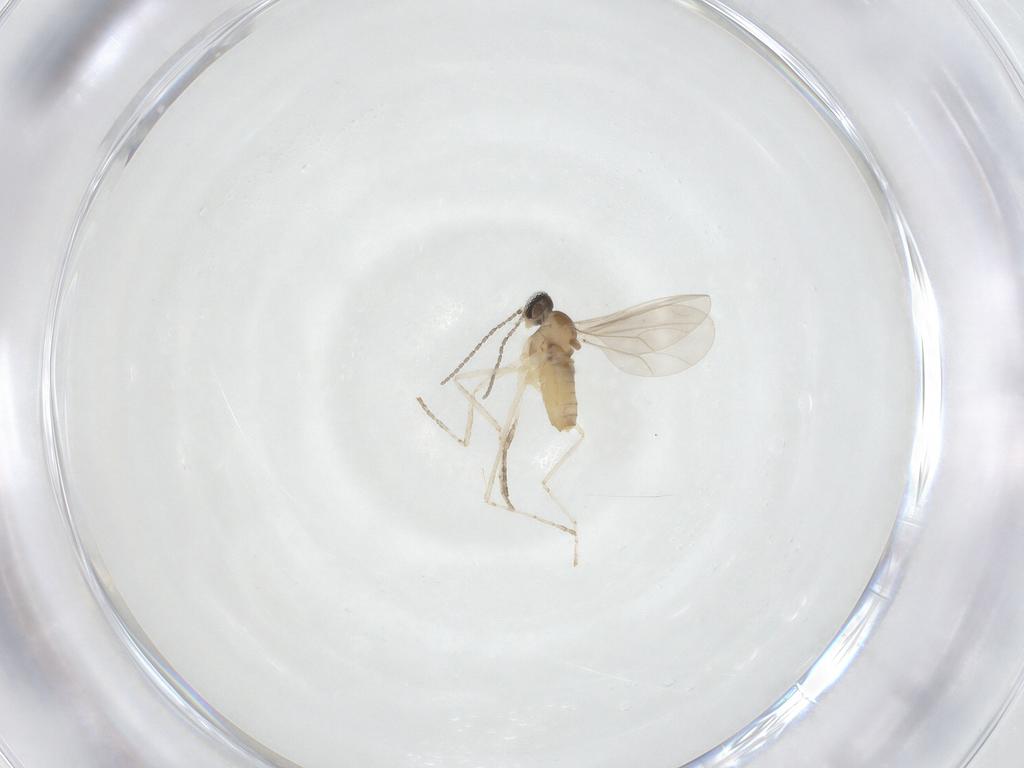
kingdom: Animalia
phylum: Arthropoda
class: Insecta
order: Diptera
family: Cecidomyiidae
